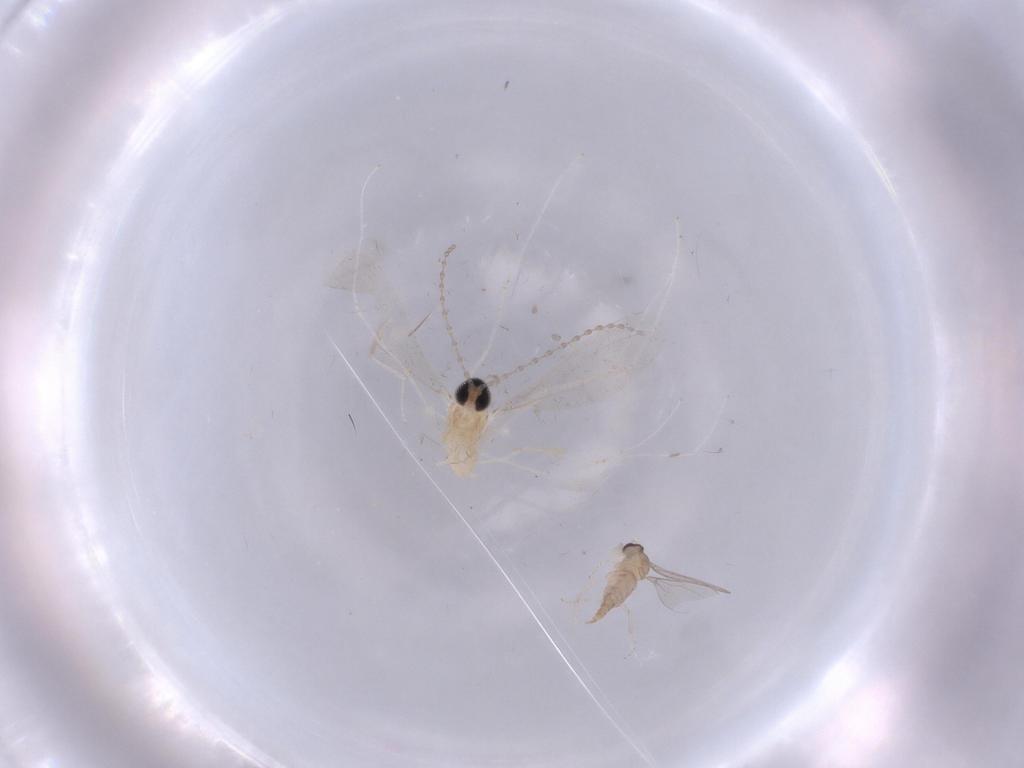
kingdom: Animalia
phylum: Arthropoda
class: Insecta
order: Diptera
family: Cecidomyiidae
